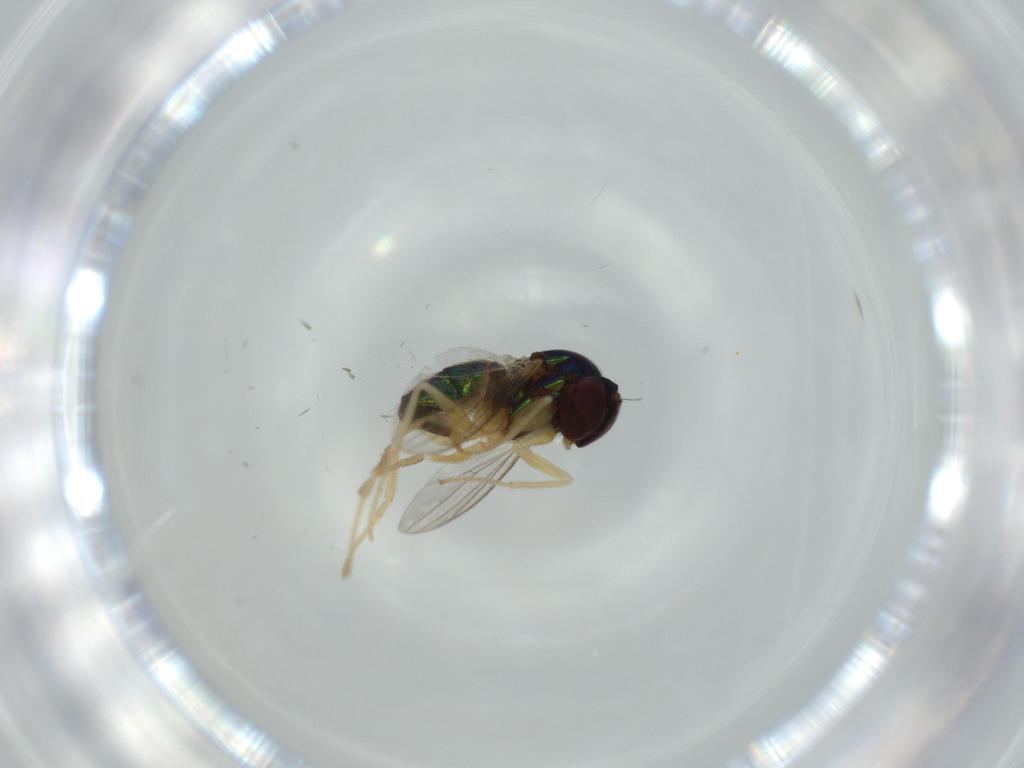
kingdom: Animalia
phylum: Arthropoda
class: Insecta
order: Diptera
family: Dolichopodidae
